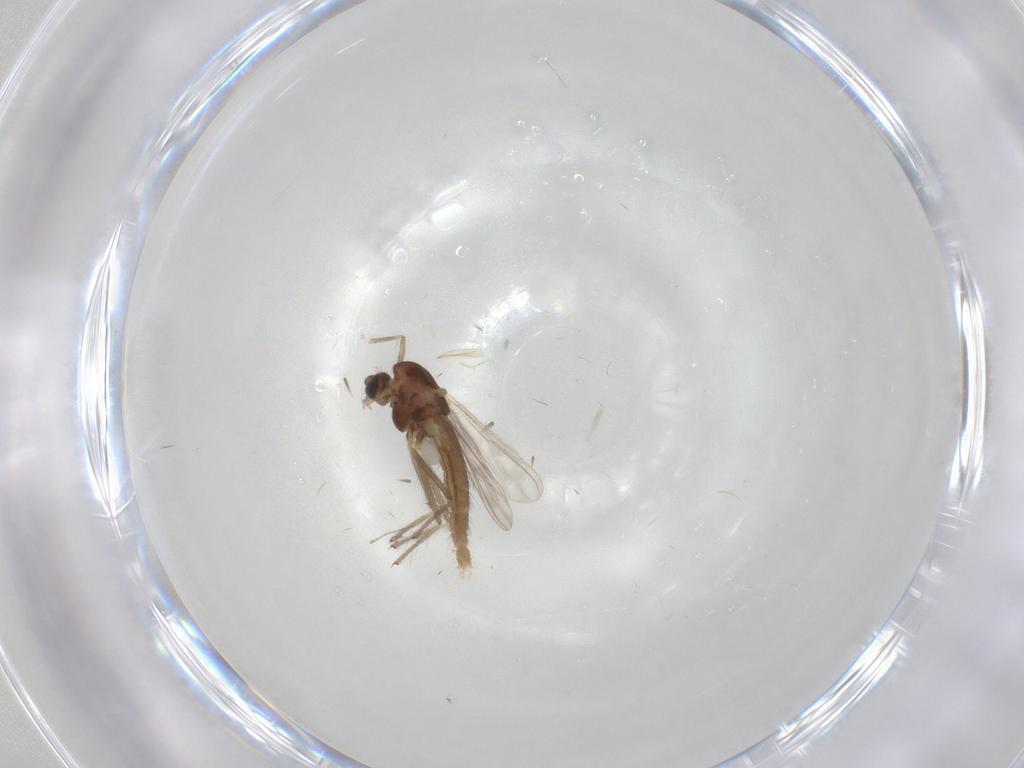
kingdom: Animalia
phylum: Arthropoda
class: Insecta
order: Diptera
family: Chironomidae
